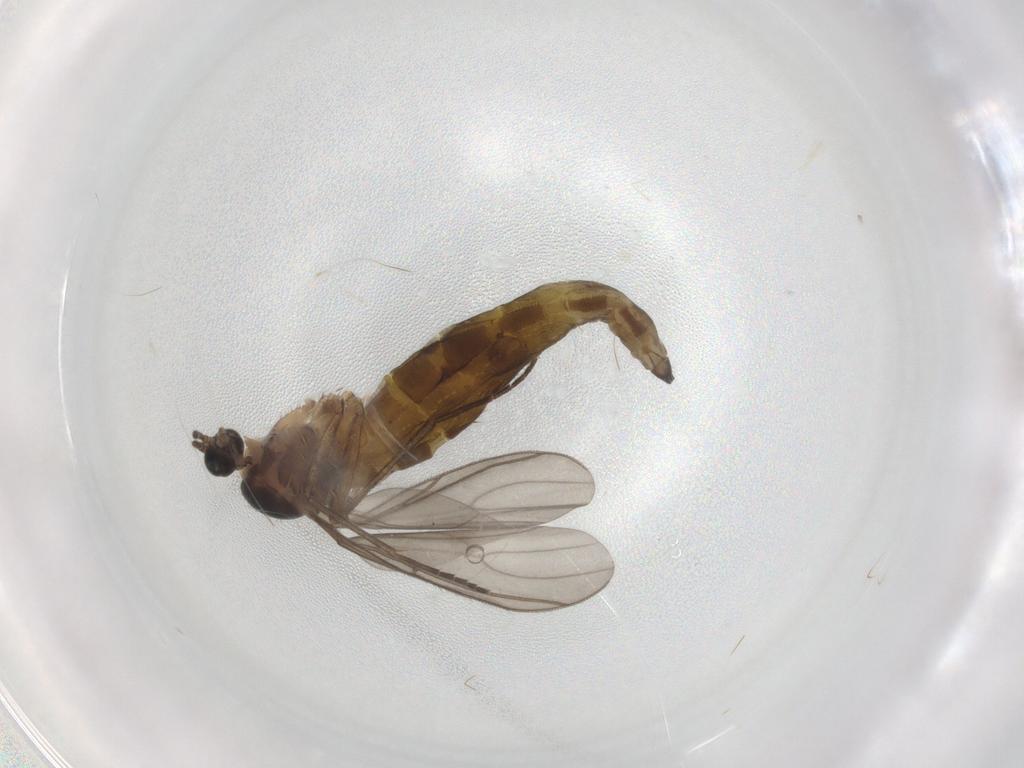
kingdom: Animalia
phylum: Arthropoda
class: Insecta
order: Diptera
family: Sciaridae
